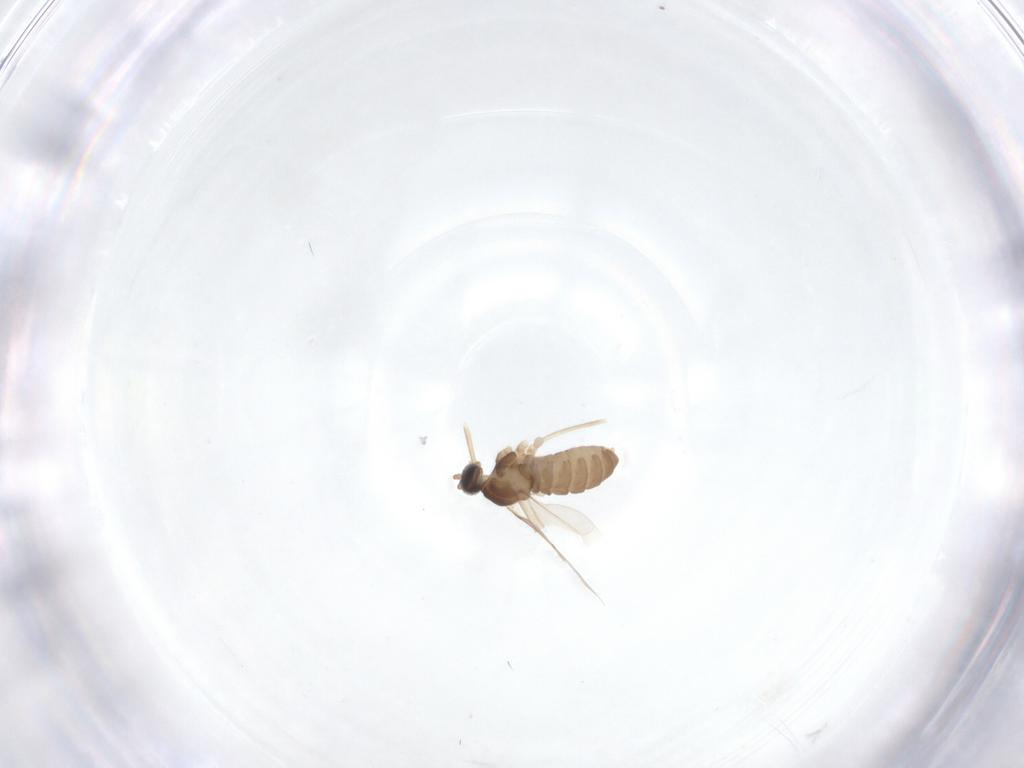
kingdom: Animalia
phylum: Arthropoda
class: Insecta
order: Diptera
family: Cecidomyiidae
